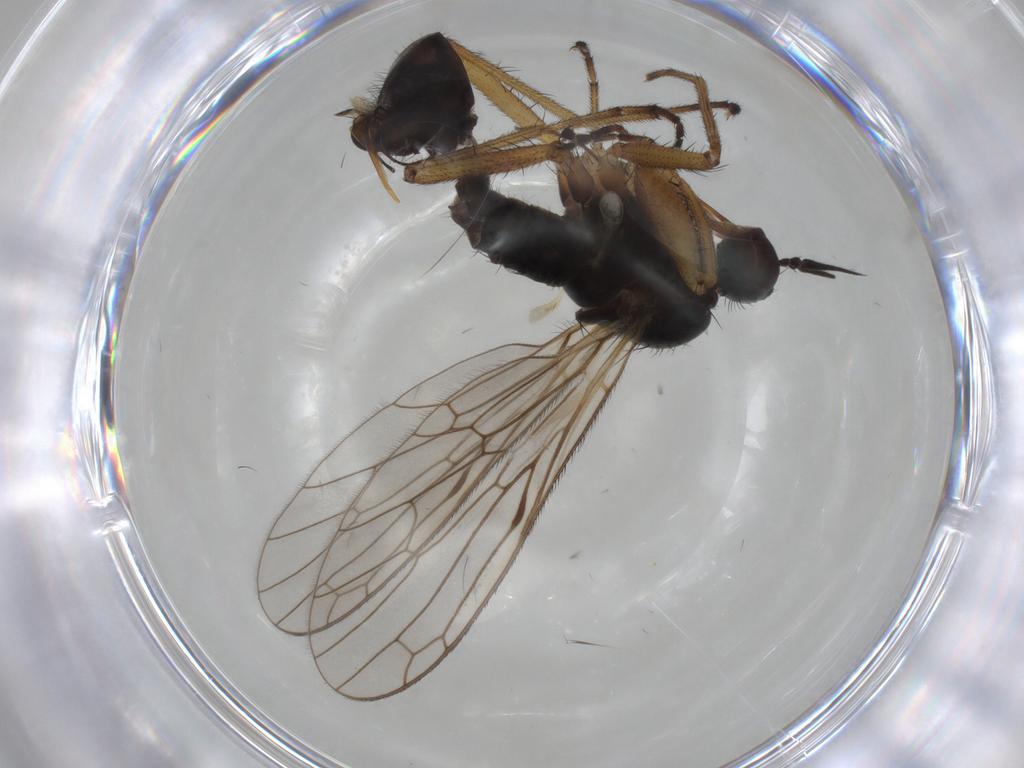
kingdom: Animalia
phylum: Arthropoda
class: Insecta
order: Diptera
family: Empididae
